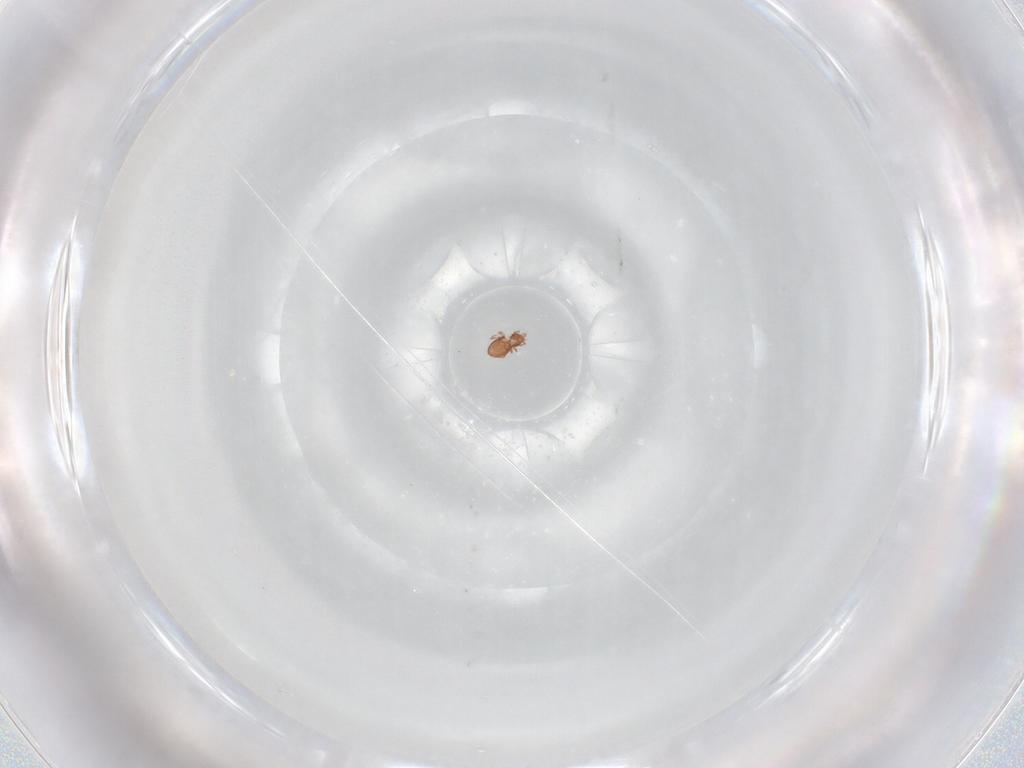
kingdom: Animalia
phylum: Arthropoda
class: Arachnida
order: Sarcoptiformes
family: Oppiidae
